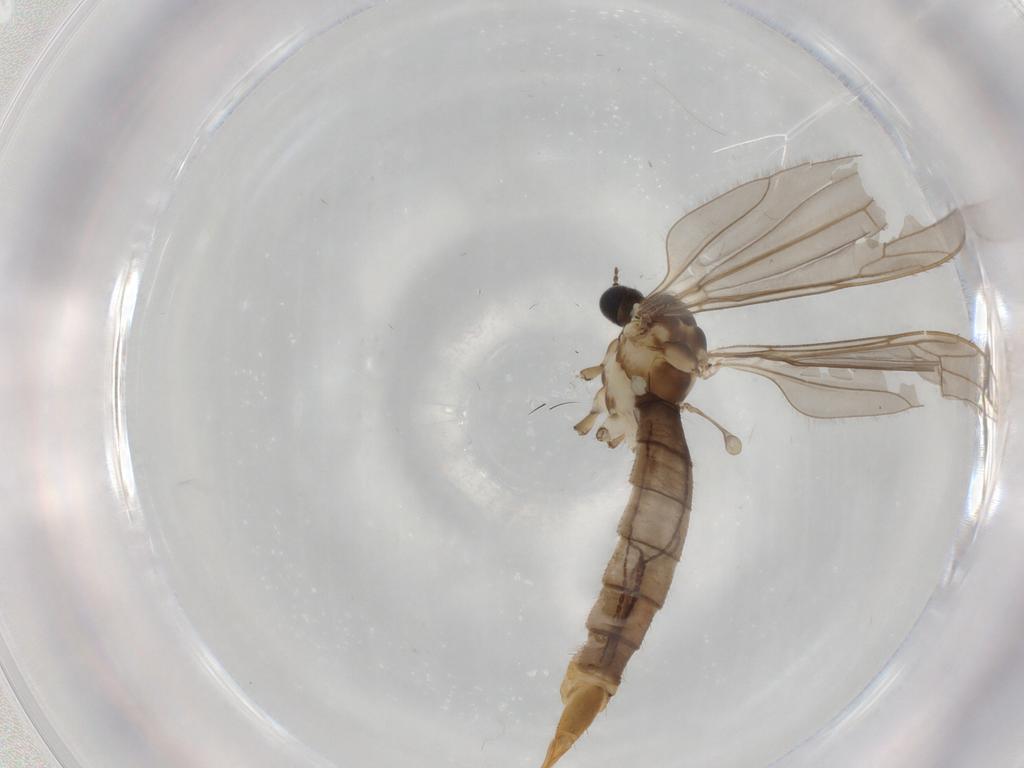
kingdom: Animalia
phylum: Arthropoda
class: Insecta
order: Diptera
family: Limoniidae
